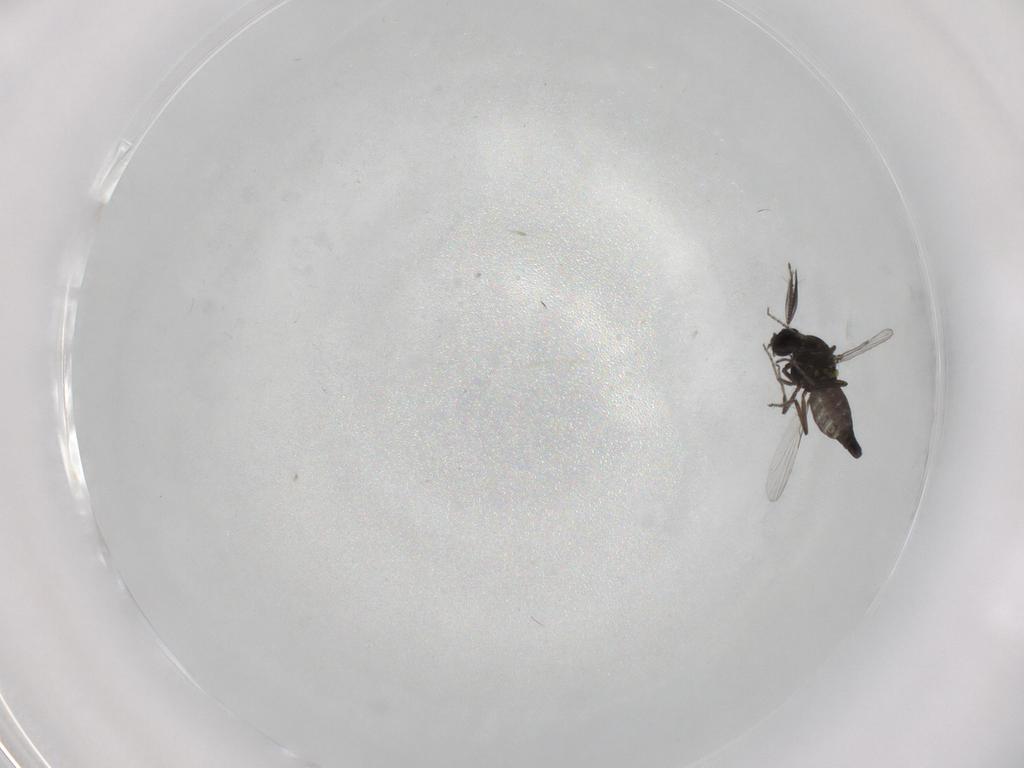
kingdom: Animalia
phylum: Arthropoda
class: Insecta
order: Diptera
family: Ceratopogonidae
